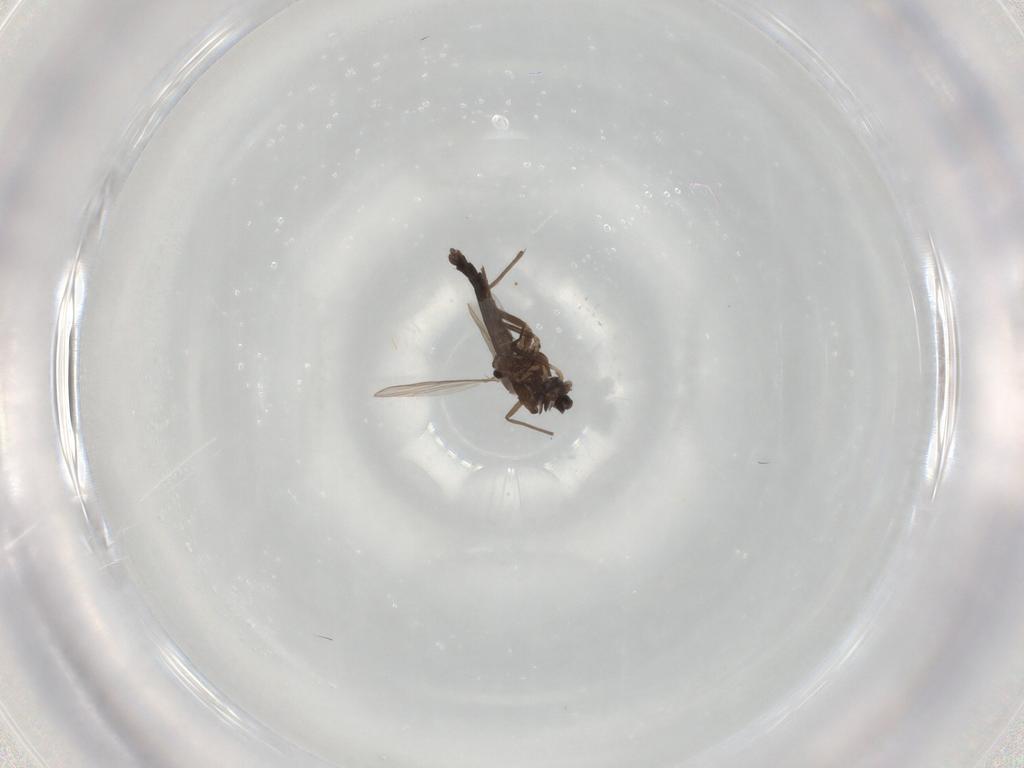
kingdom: Animalia
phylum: Arthropoda
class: Insecta
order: Diptera
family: Chironomidae
